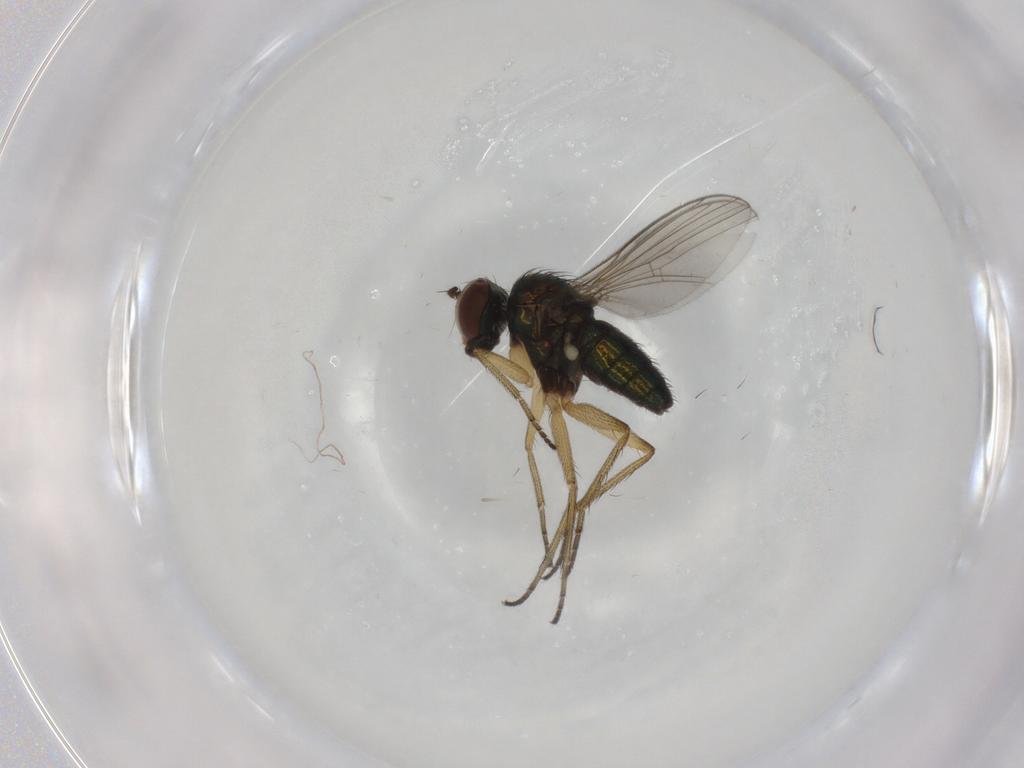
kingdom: Animalia
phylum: Arthropoda
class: Insecta
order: Diptera
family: Dolichopodidae
